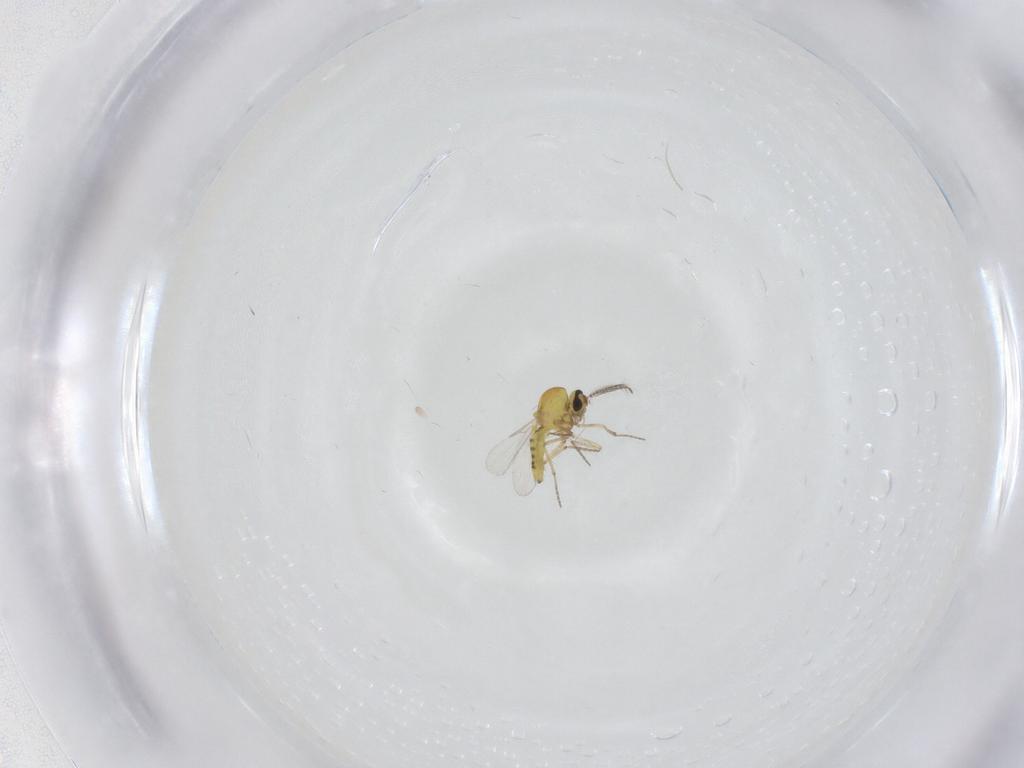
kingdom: Animalia
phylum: Arthropoda
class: Insecta
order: Diptera
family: Ceratopogonidae
